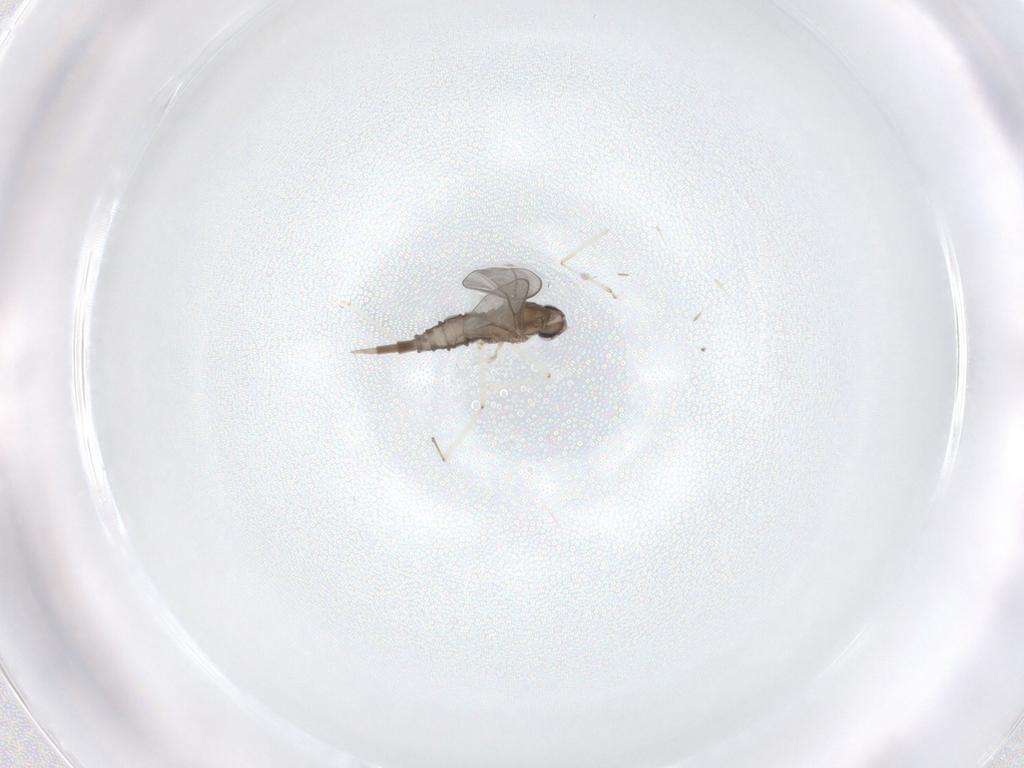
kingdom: Animalia
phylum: Arthropoda
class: Insecta
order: Diptera
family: Cecidomyiidae
